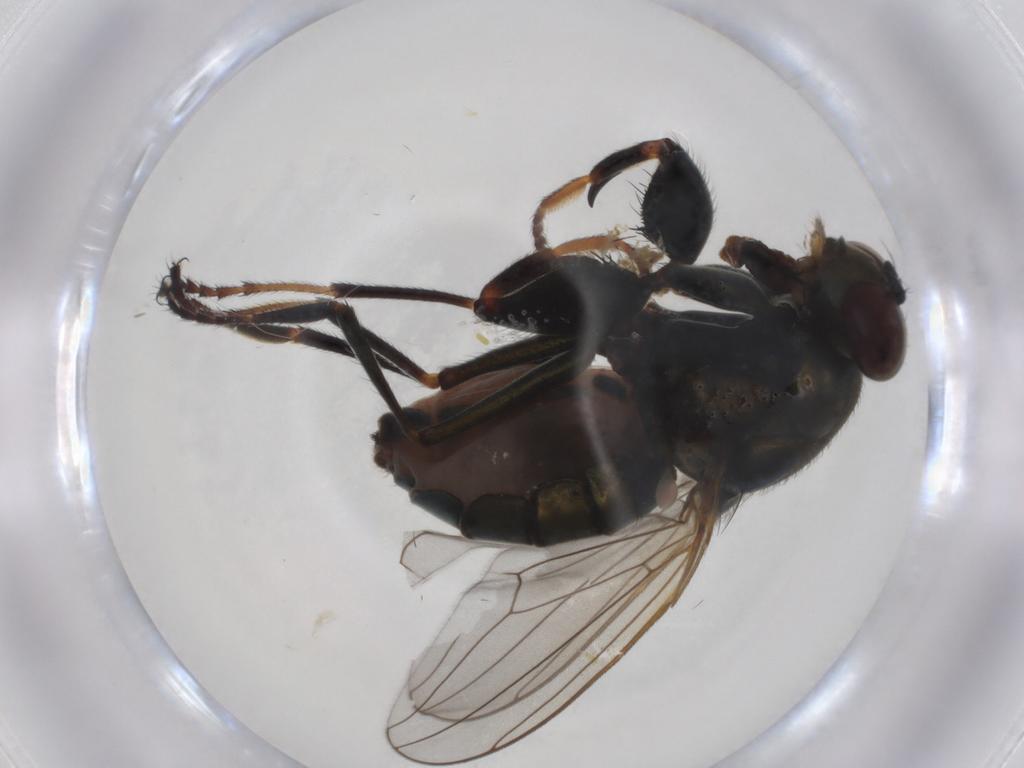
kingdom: Animalia
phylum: Arthropoda
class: Insecta
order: Diptera
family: Ephydridae
